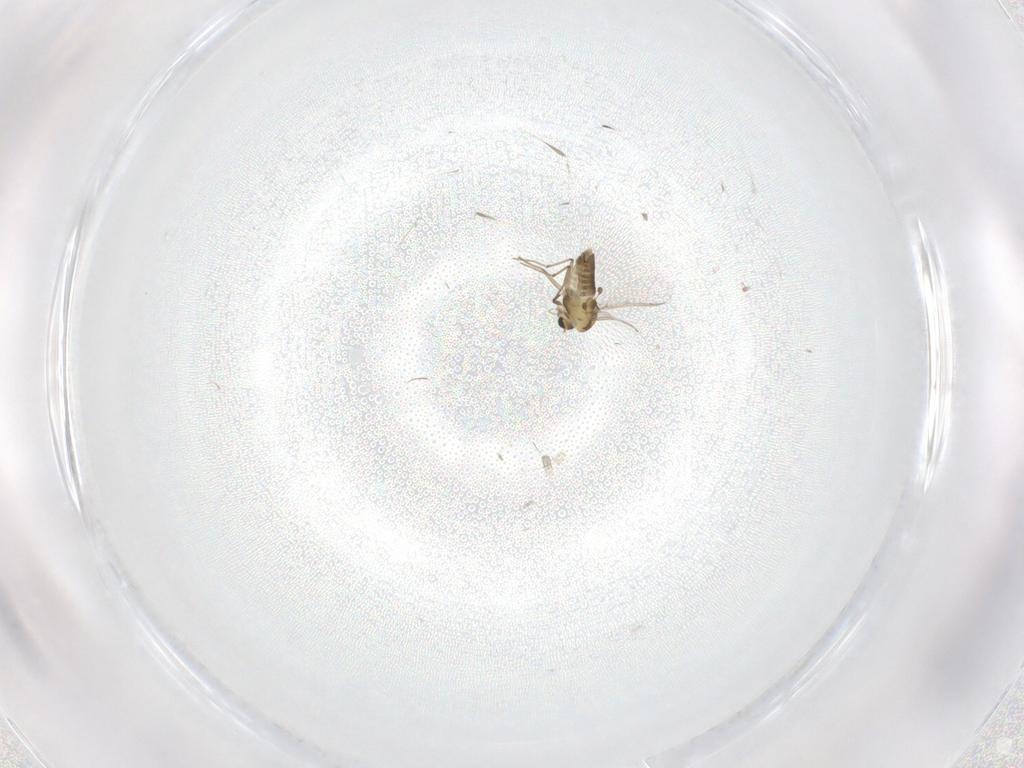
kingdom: Animalia
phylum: Arthropoda
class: Insecta
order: Diptera
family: Chironomidae
